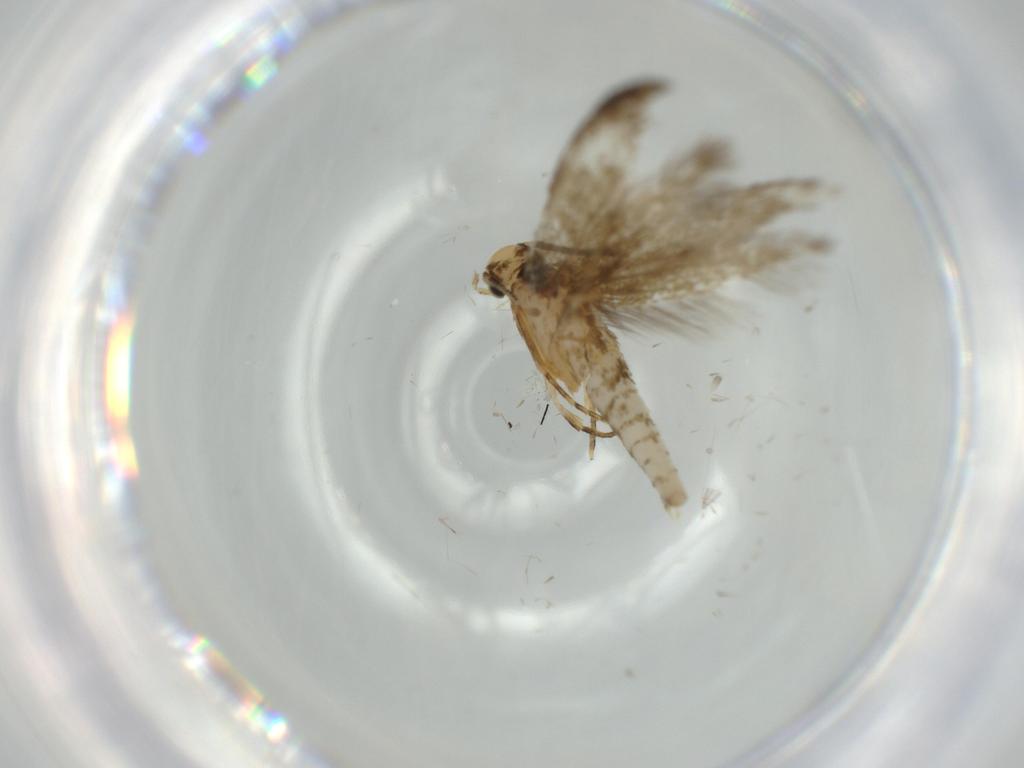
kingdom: Animalia
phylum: Arthropoda
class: Insecta
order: Lepidoptera
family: Tineidae
